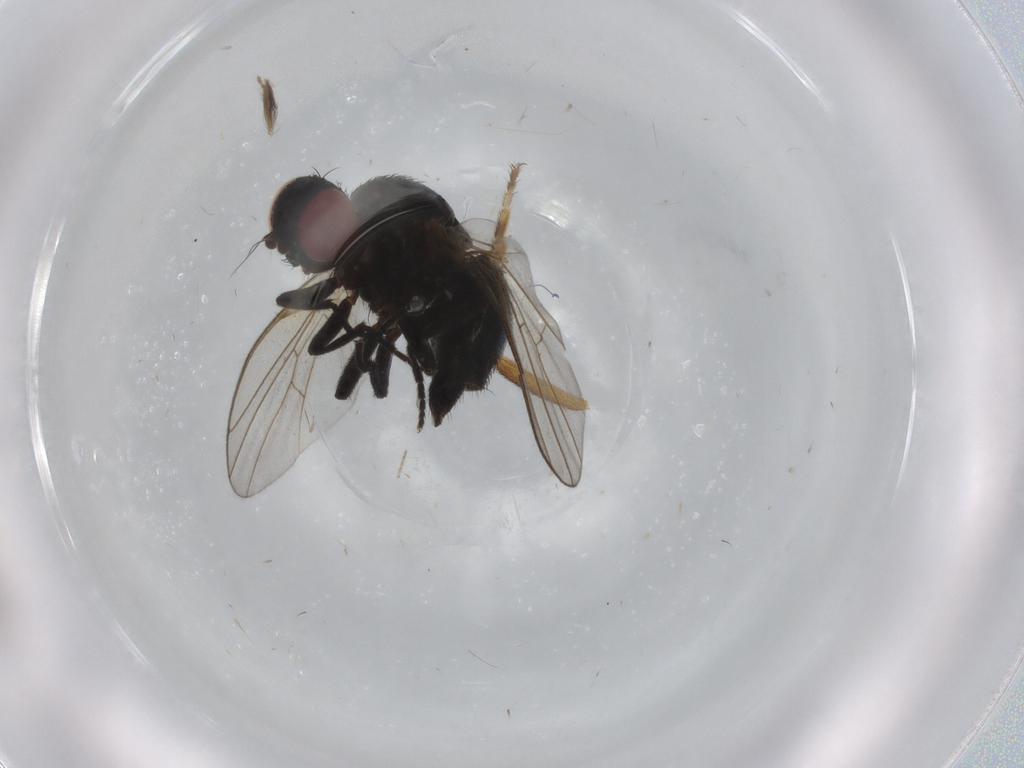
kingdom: Animalia
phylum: Arthropoda
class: Insecta
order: Diptera
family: Agromyzidae
